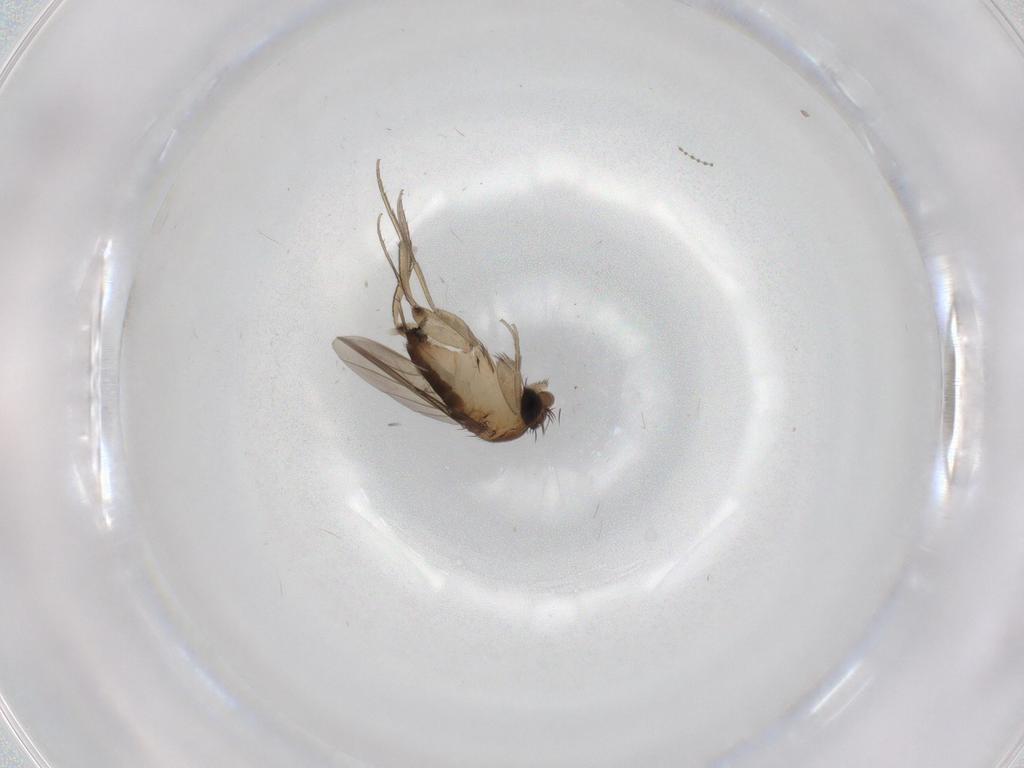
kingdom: Animalia
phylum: Arthropoda
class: Insecta
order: Diptera
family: Phoridae
